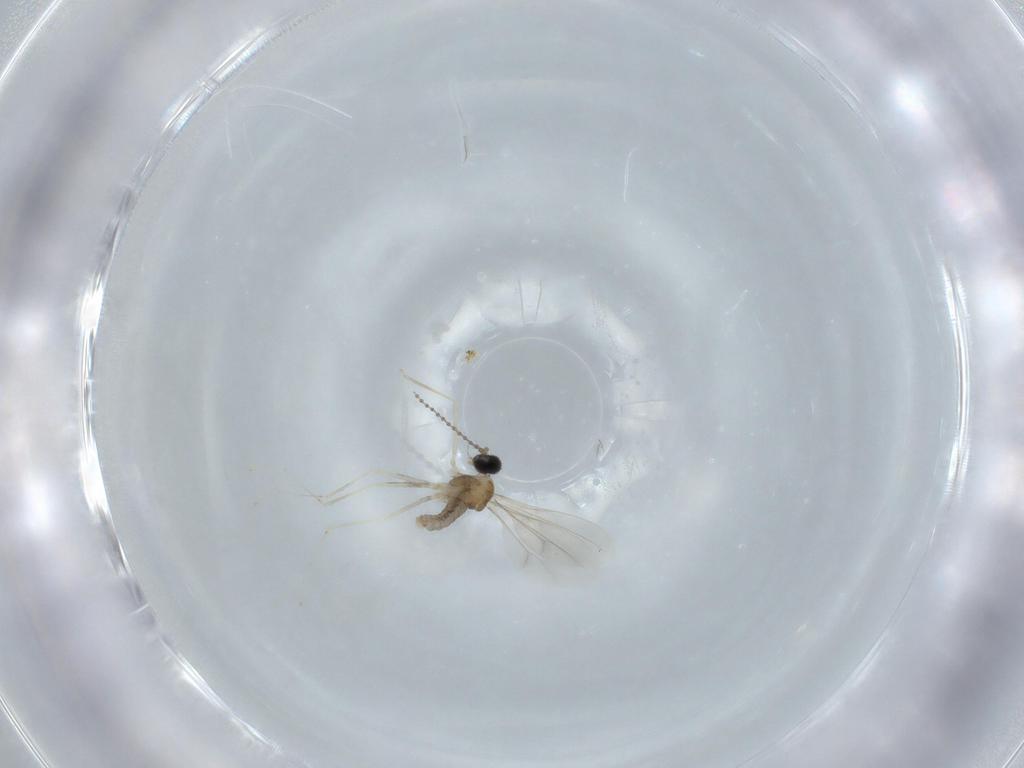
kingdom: Animalia
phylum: Arthropoda
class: Insecta
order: Diptera
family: Cecidomyiidae
